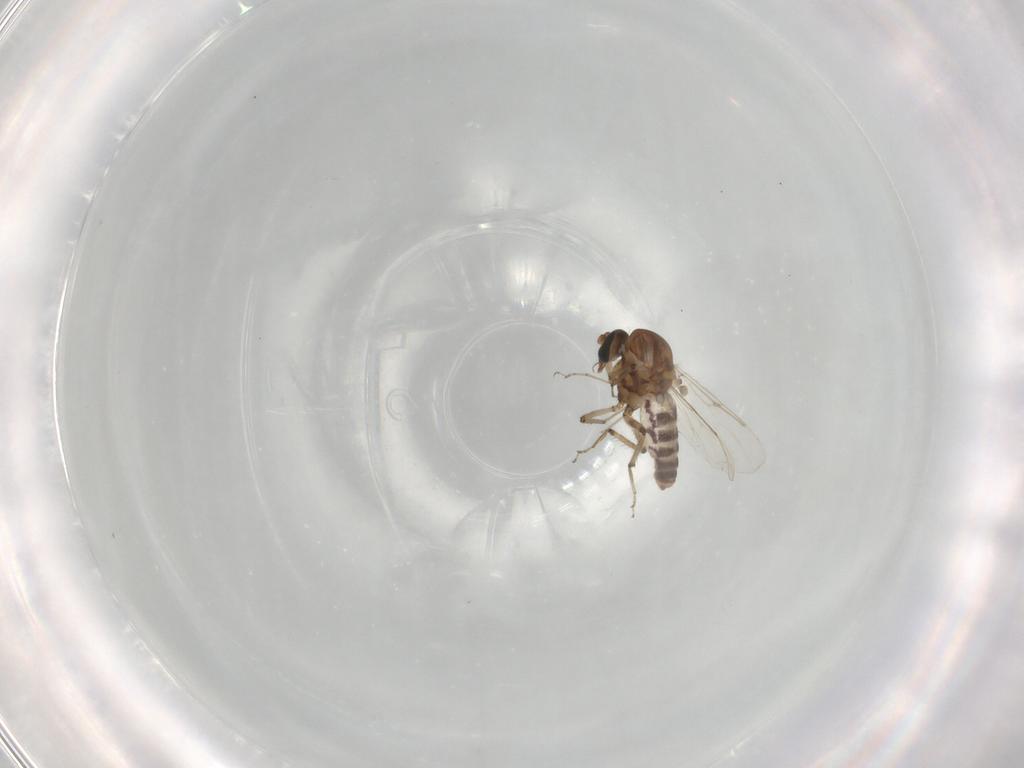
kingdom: Animalia
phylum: Arthropoda
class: Insecta
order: Diptera
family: Ceratopogonidae
